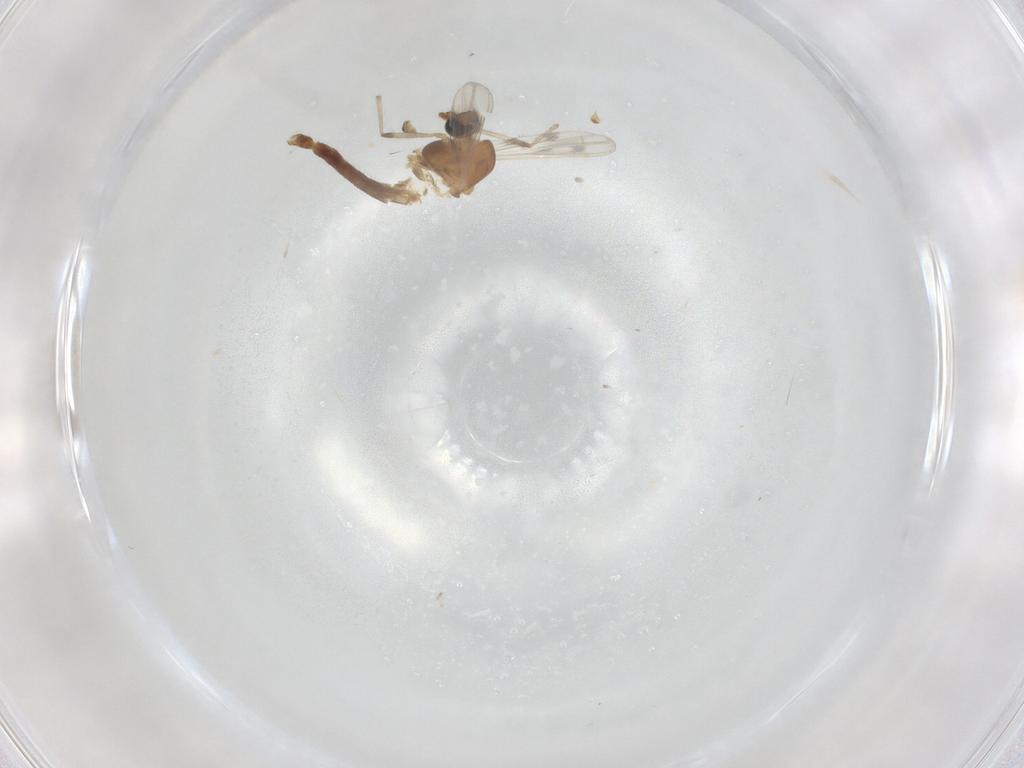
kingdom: Animalia
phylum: Arthropoda
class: Insecta
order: Diptera
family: Chironomidae
